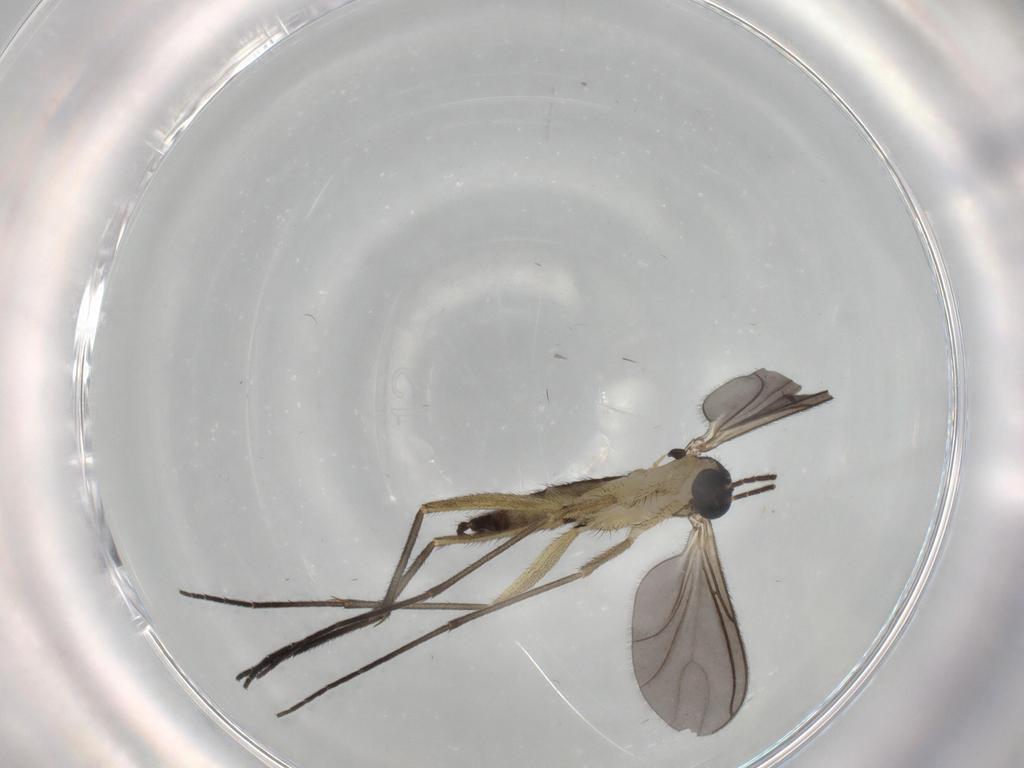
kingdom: Animalia
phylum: Arthropoda
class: Insecta
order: Diptera
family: Sciaridae
